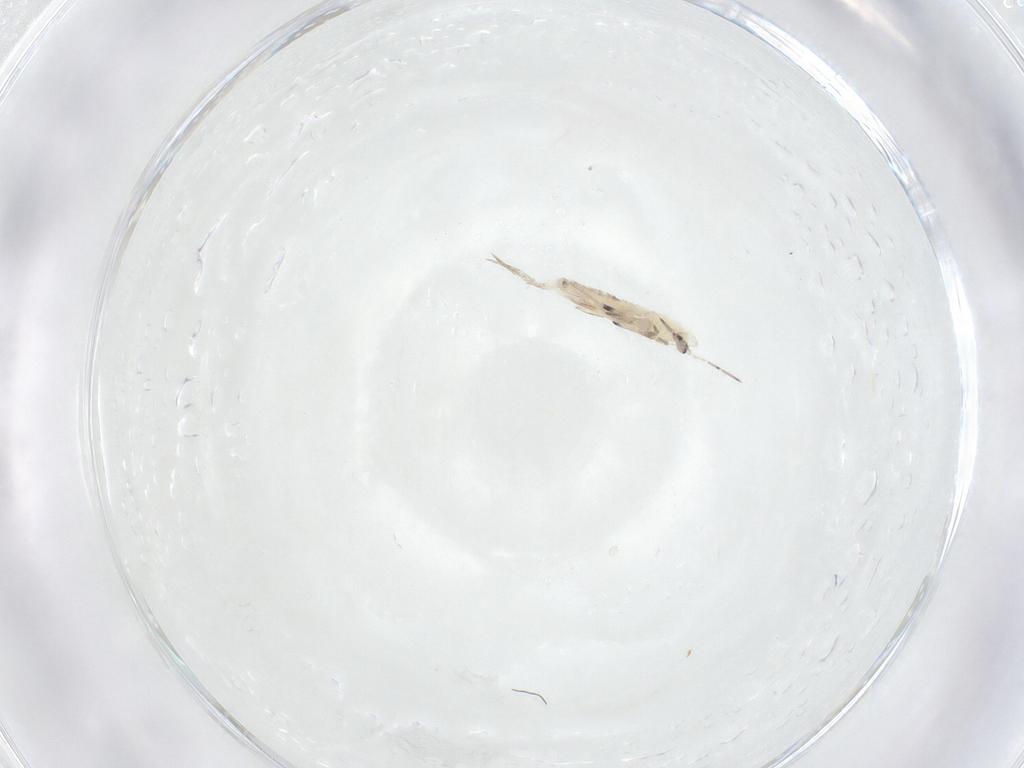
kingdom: Animalia
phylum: Arthropoda
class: Collembola
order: Entomobryomorpha
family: Entomobryidae
